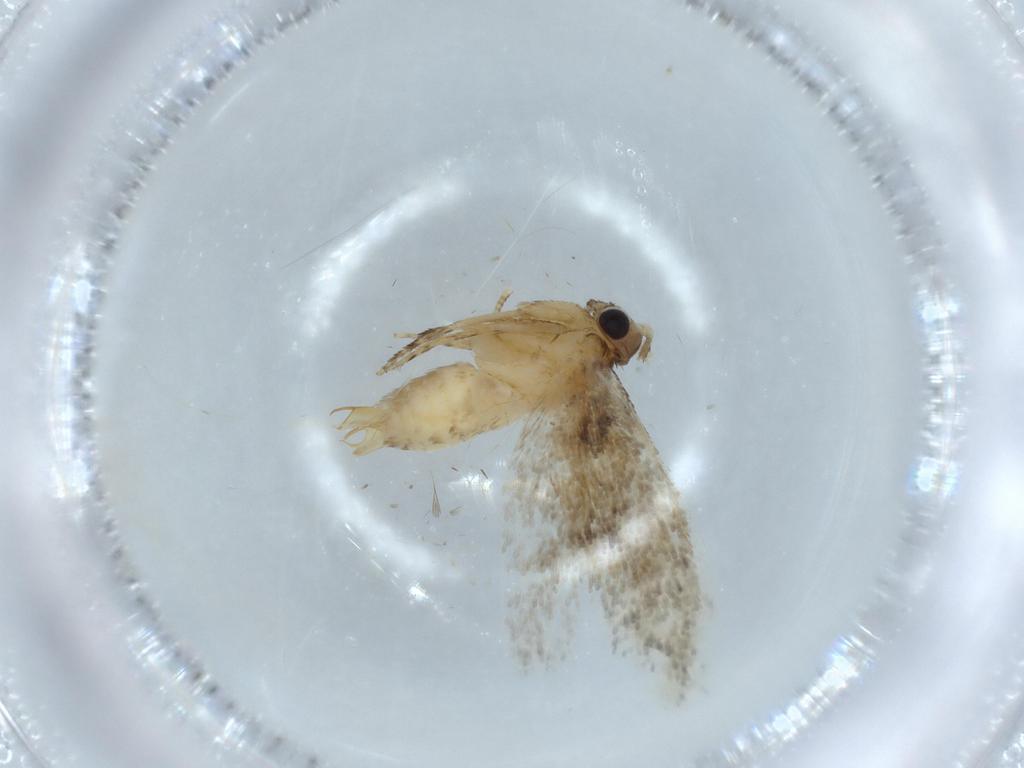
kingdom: Animalia
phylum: Arthropoda
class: Insecta
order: Lepidoptera
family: Tineidae
